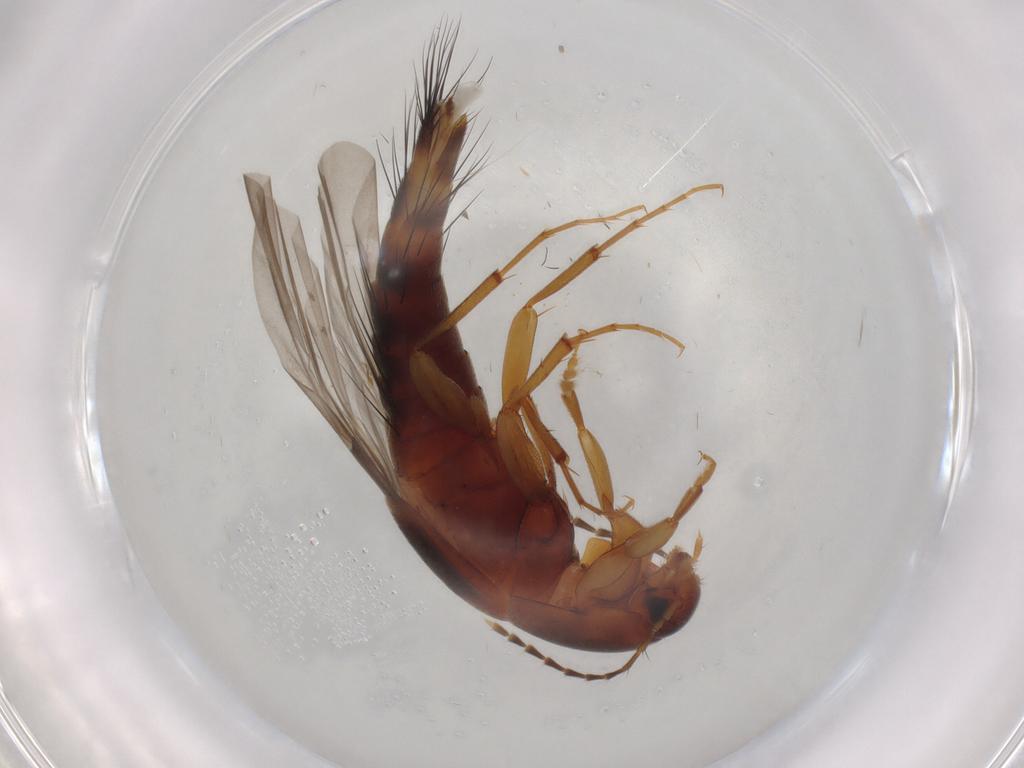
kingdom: Animalia
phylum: Arthropoda
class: Insecta
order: Coleoptera
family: Staphylinidae
